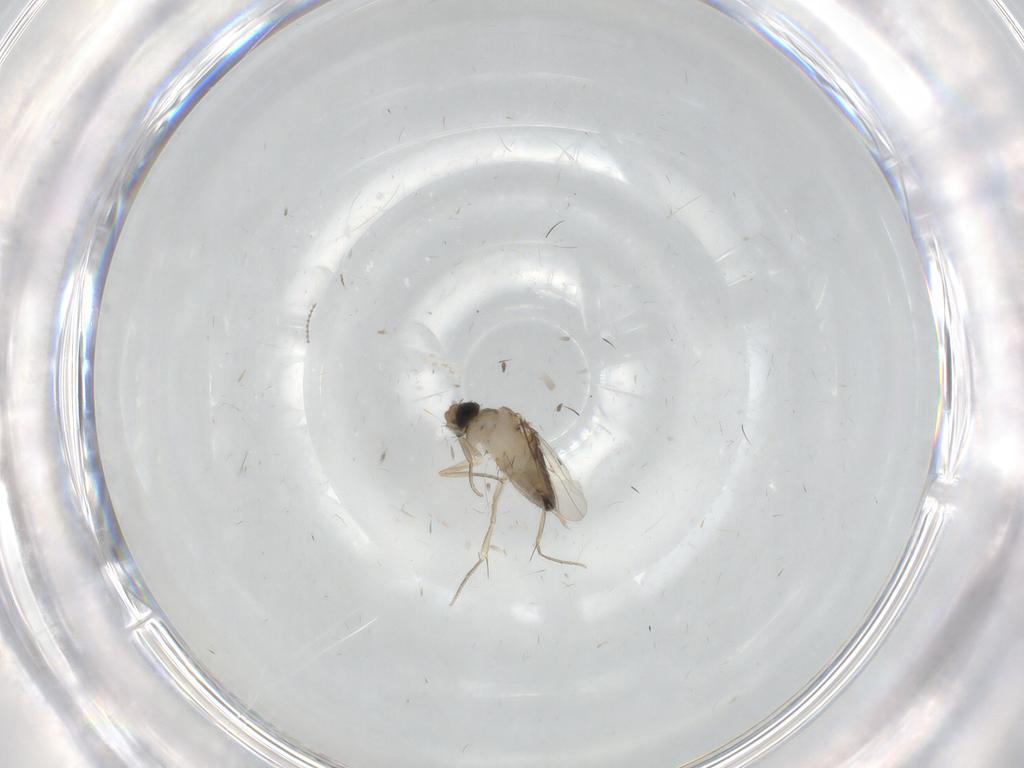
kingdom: Animalia
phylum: Arthropoda
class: Insecta
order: Diptera
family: Phoridae
